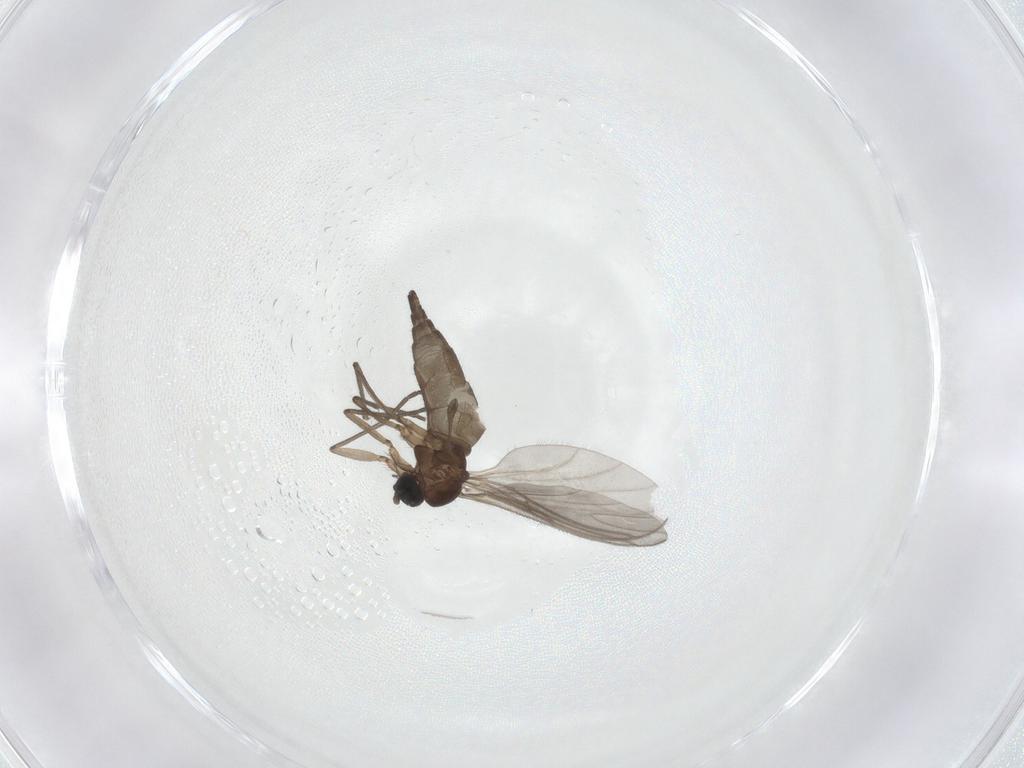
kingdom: Animalia
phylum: Arthropoda
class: Insecta
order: Diptera
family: Psychodidae
